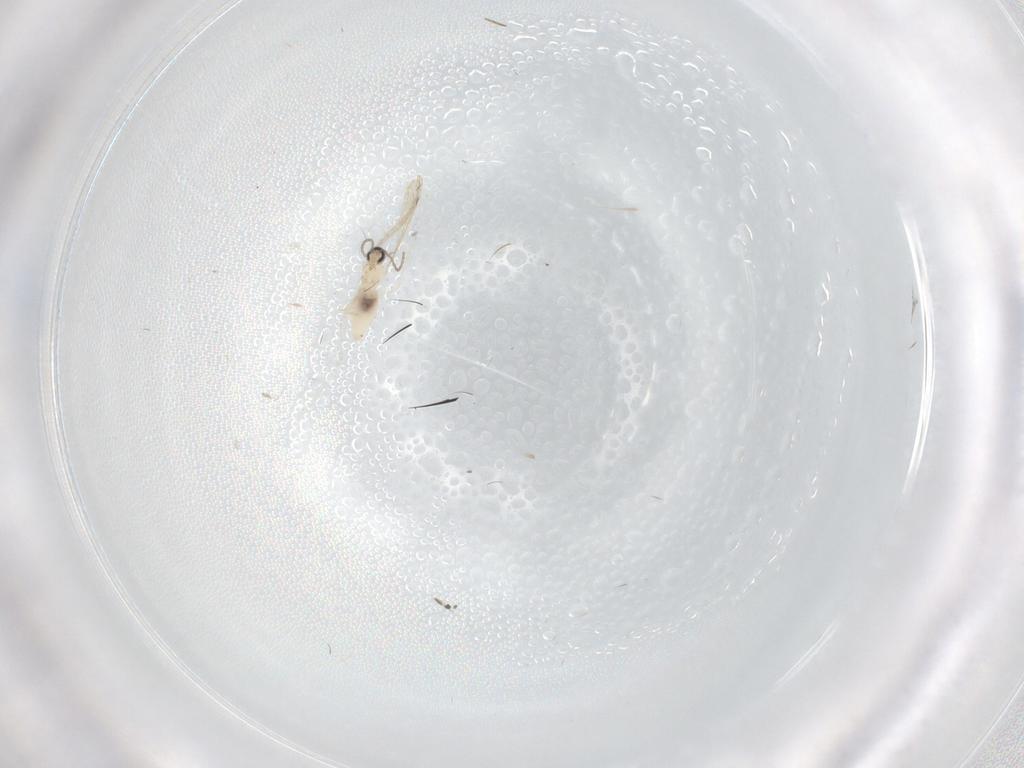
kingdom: Animalia
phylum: Arthropoda
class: Insecta
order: Diptera
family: Cecidomyiidae
